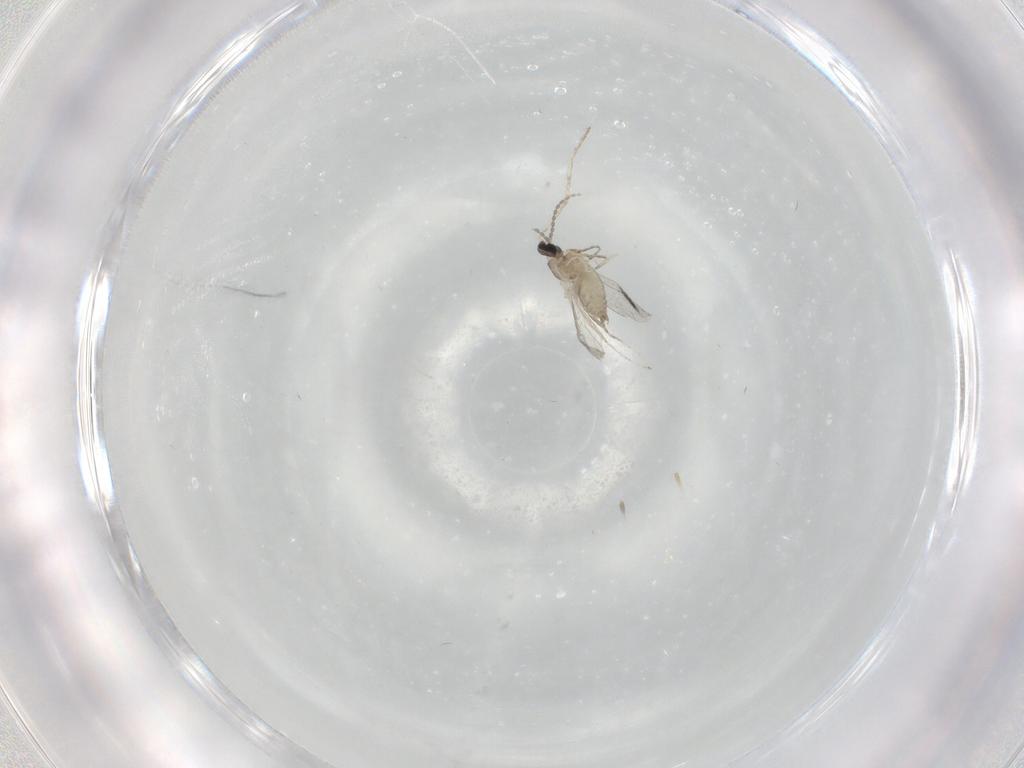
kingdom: Animalia
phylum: Arthropoda
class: Insecta
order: Diptera
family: Cecidomyiidae
